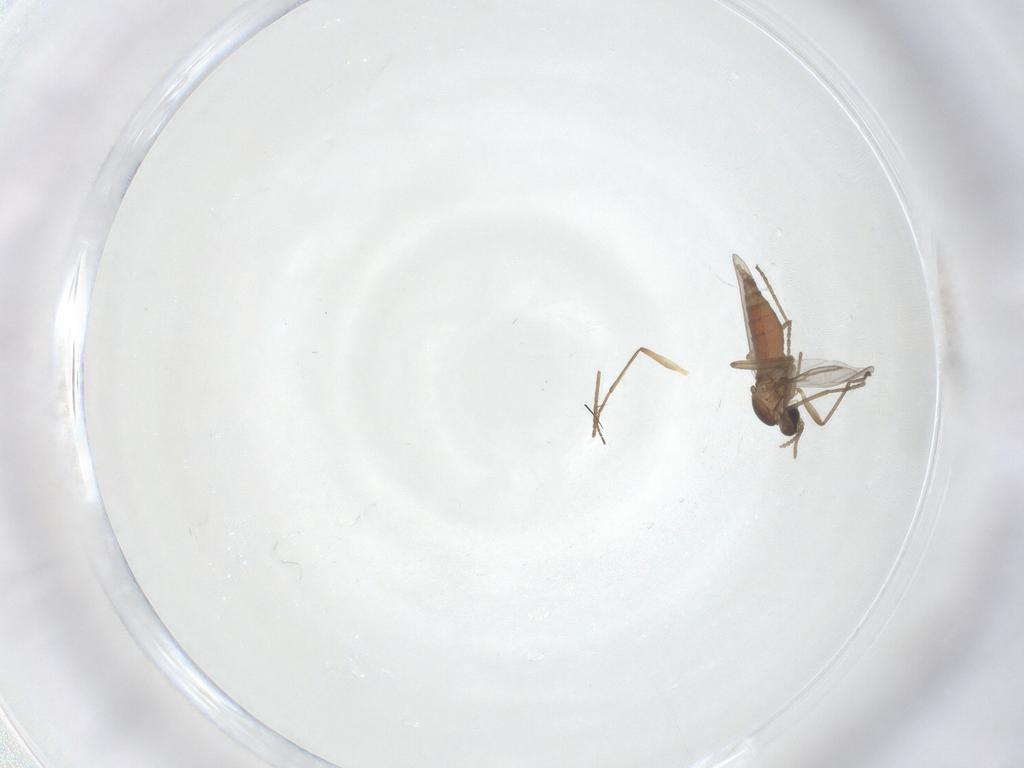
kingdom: Animalia
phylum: Arthropoda
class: Insecta
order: Diptera
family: Cecidomyiidae
